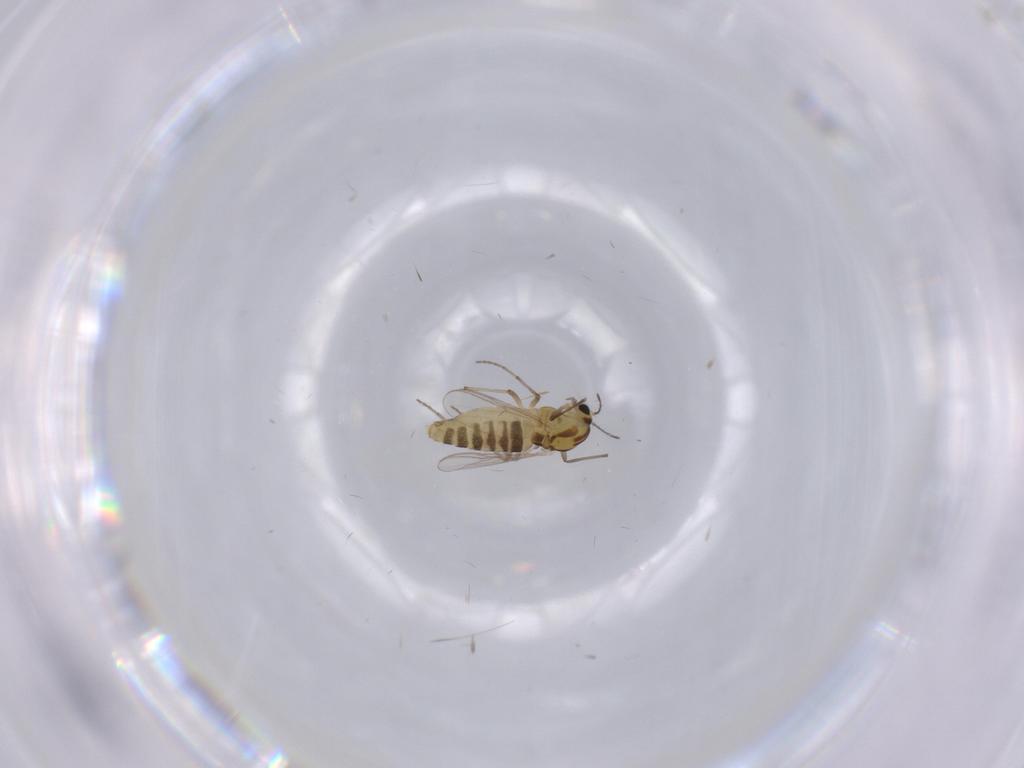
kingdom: Animalia
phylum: Arthropoda
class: Insecta
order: Diptera
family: Chironomidae
